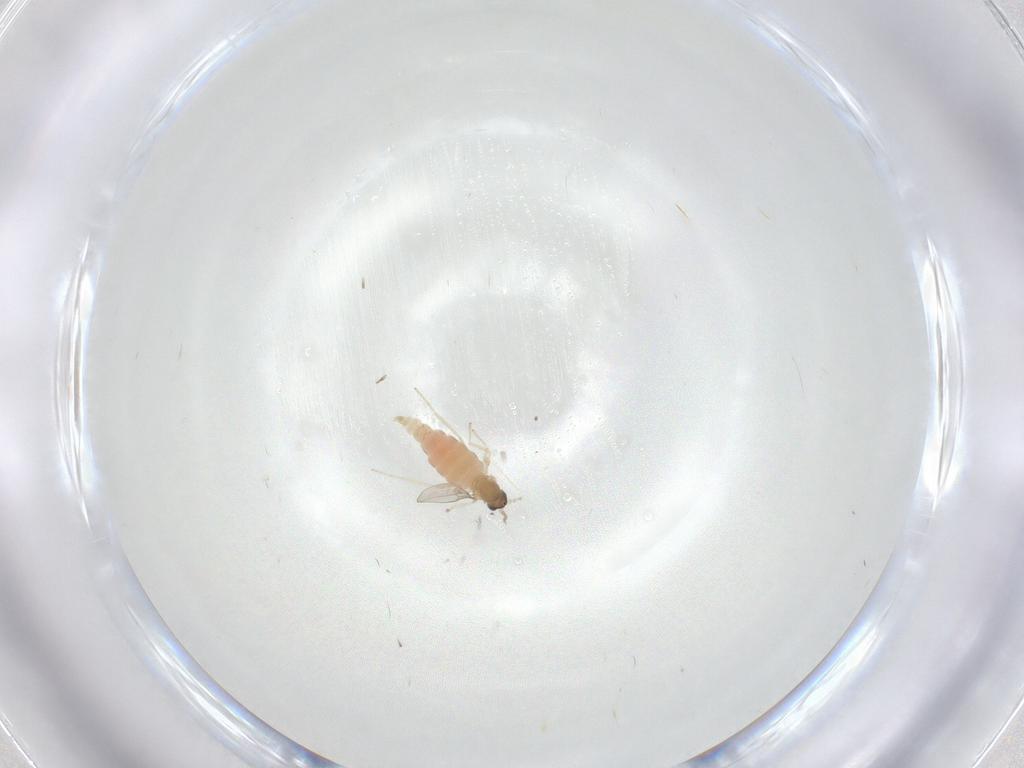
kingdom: Animalia
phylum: Arthropoda
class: Insecta
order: Diptera
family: Cecidomyiidae
